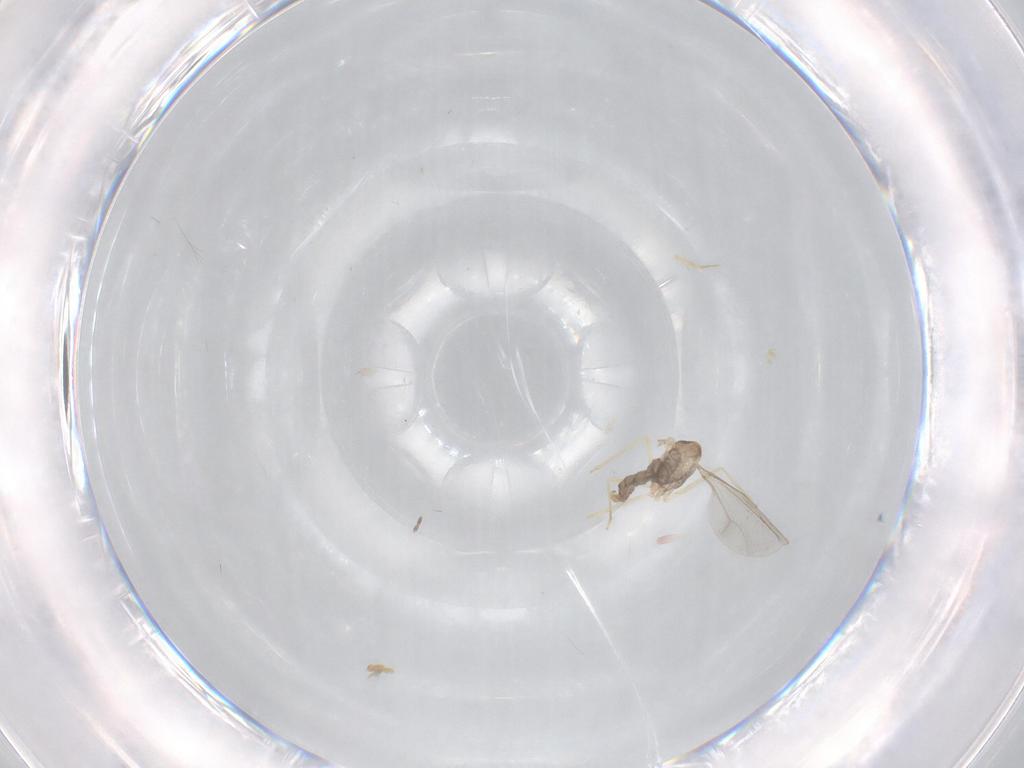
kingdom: Animalia
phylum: Arthropoda
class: Insecta
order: Diptera
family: Cecidomyiidae
